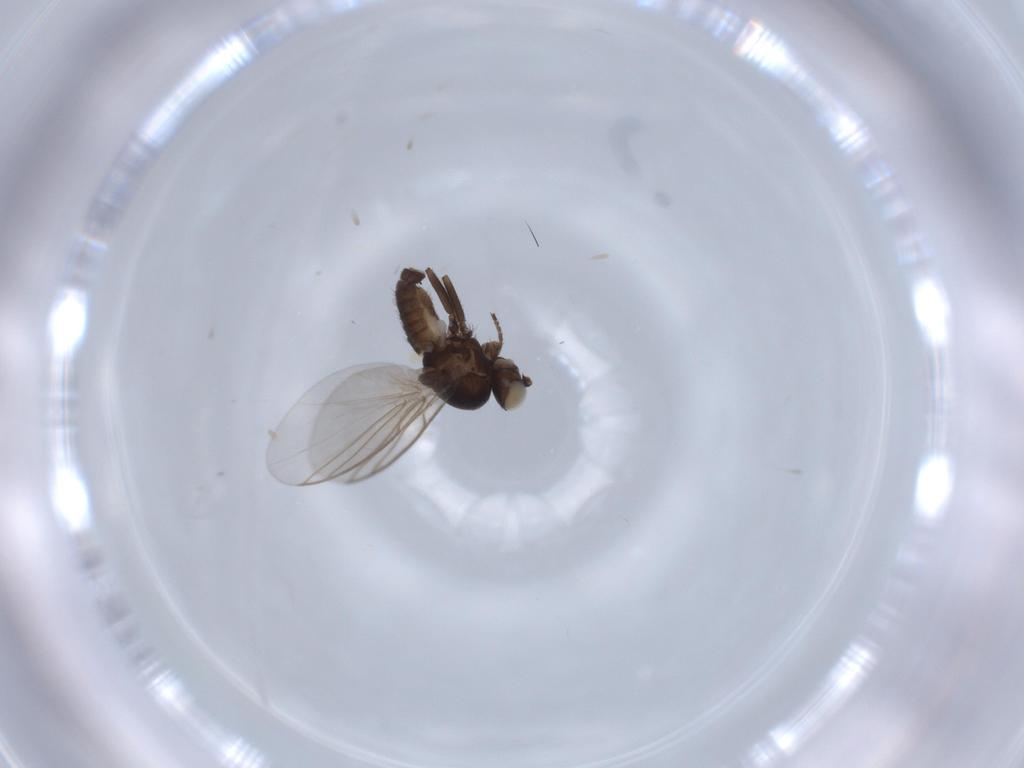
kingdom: Animalia
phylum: Arthropoda
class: Insecta
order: Diptera
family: Agromyzidae
